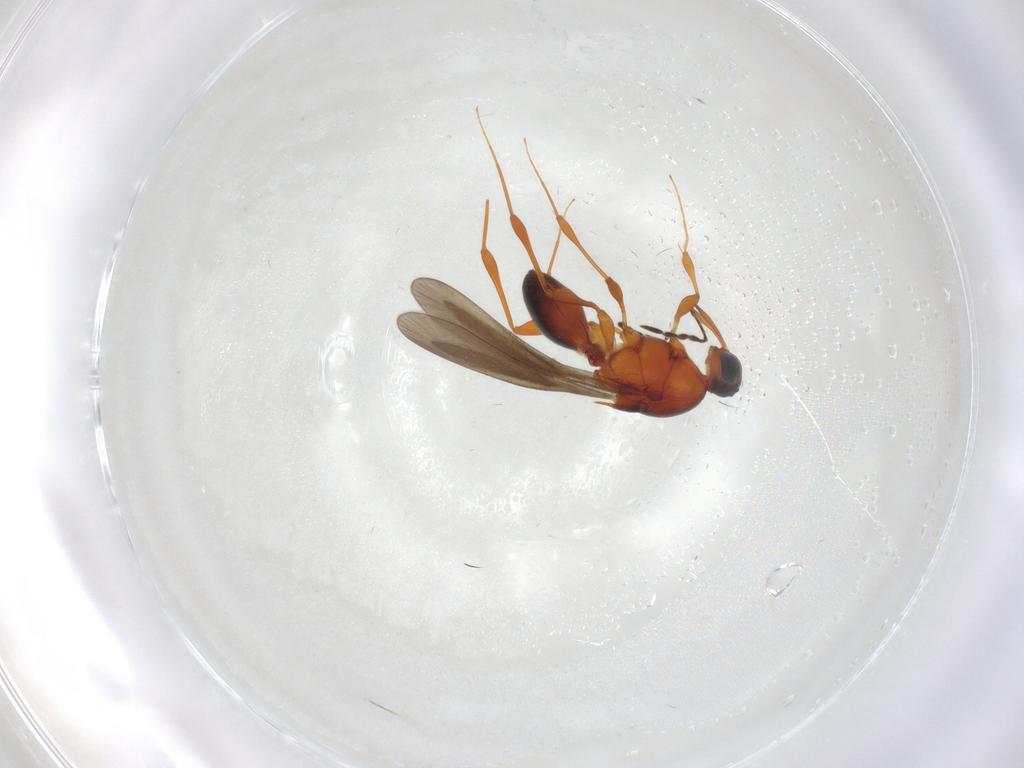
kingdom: Animalia
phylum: Arthropoda
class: Insecta
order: Hymenoptera
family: Platygastridae
